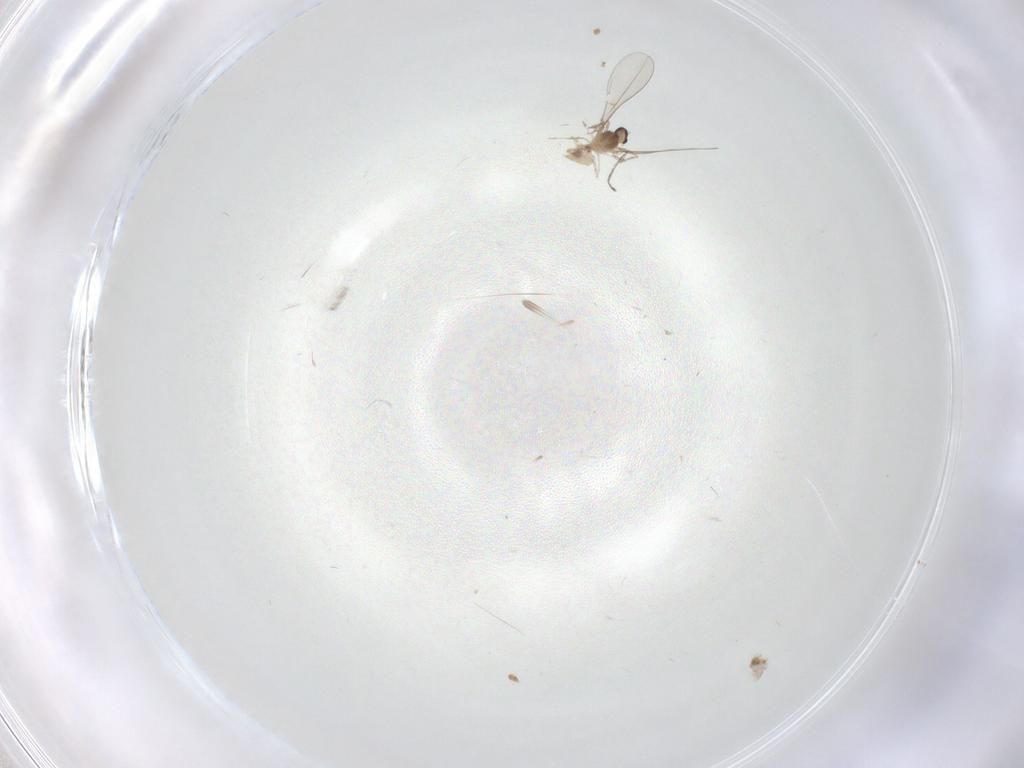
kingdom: Animalia
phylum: Arthropoda
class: Insecta
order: Diptera
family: Cecidomyiidae
